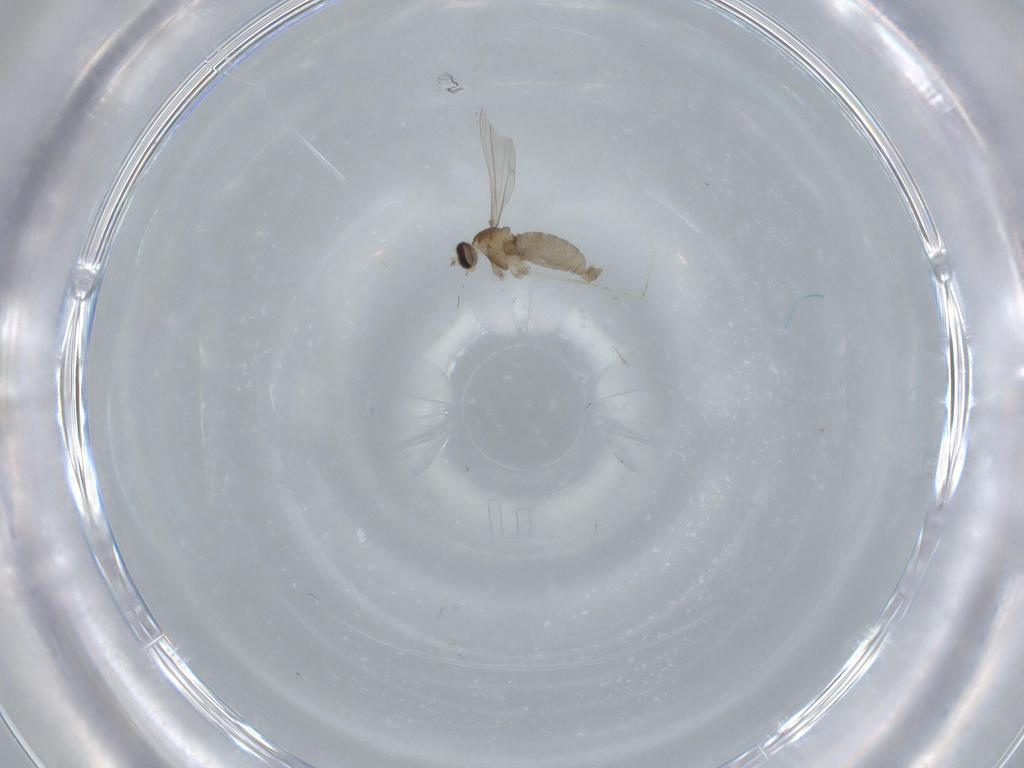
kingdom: Animalia
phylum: Arthropoda
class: Insecta
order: Diptera
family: Cecidomyiidae
